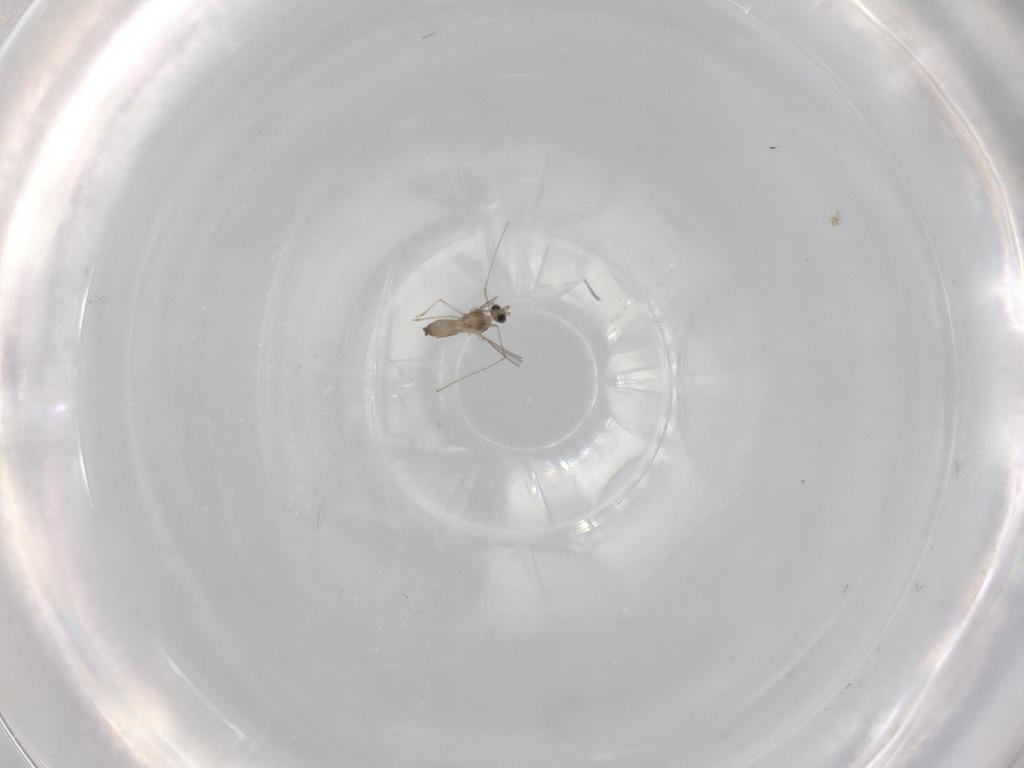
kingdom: Animalia
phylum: Arthropoda
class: Insecta
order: Diptera
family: Cecidomyiidae
